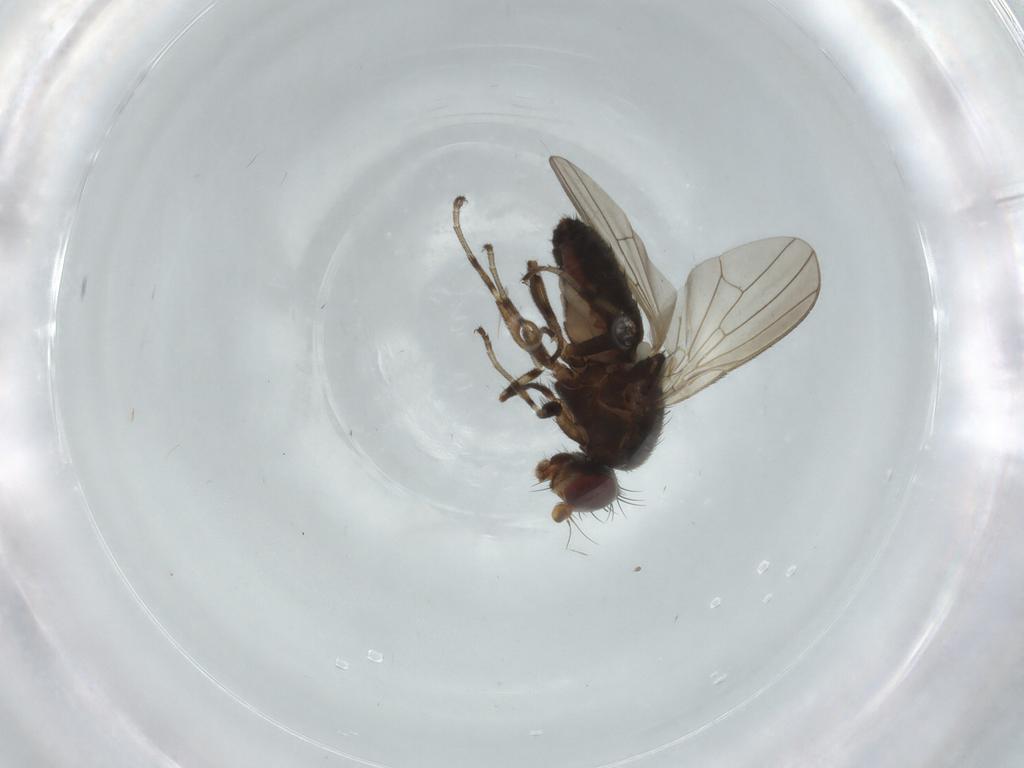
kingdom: Animalia
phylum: Arthropoda
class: Insecta
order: Diptera
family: Heleomyzidae
